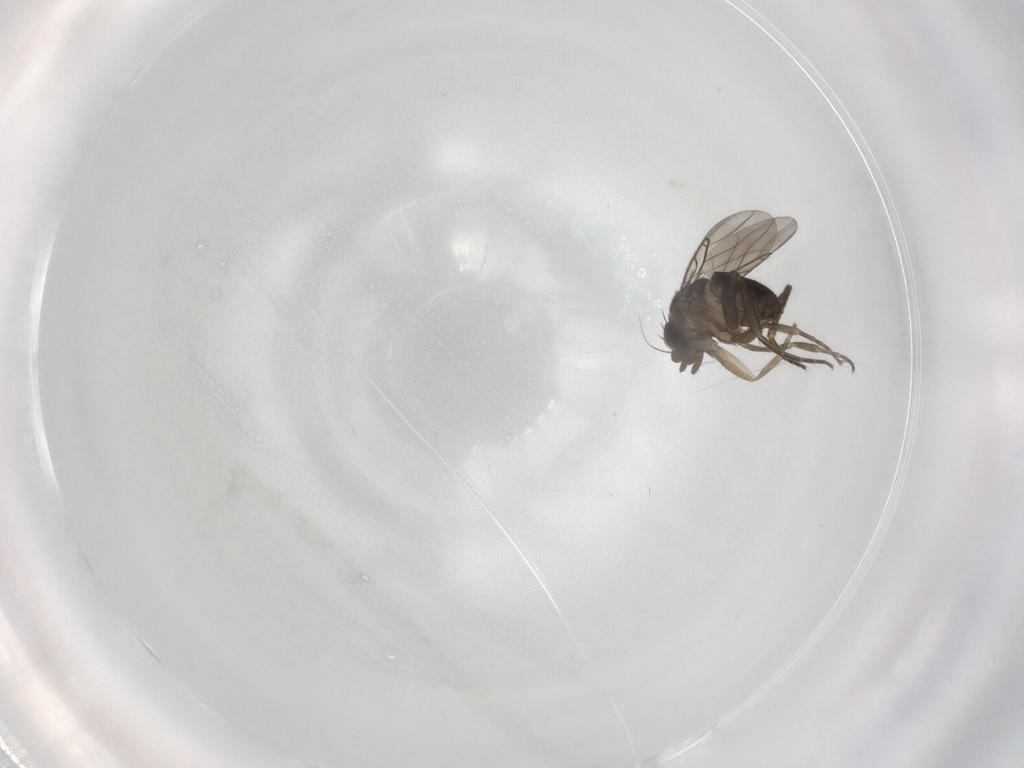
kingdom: Animalia
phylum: Arthropoda
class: Insecta
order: Diptera
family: Phoridae
